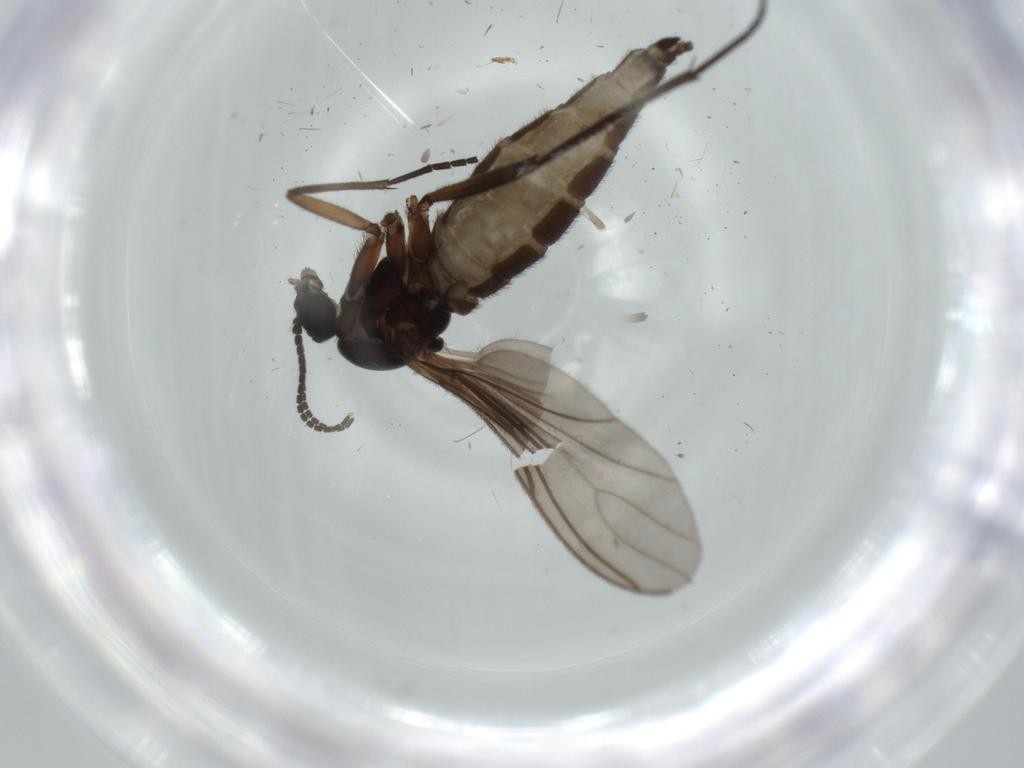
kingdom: Animalia
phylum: Arthropoda
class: Insecta
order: Diptera
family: Sciaridae
